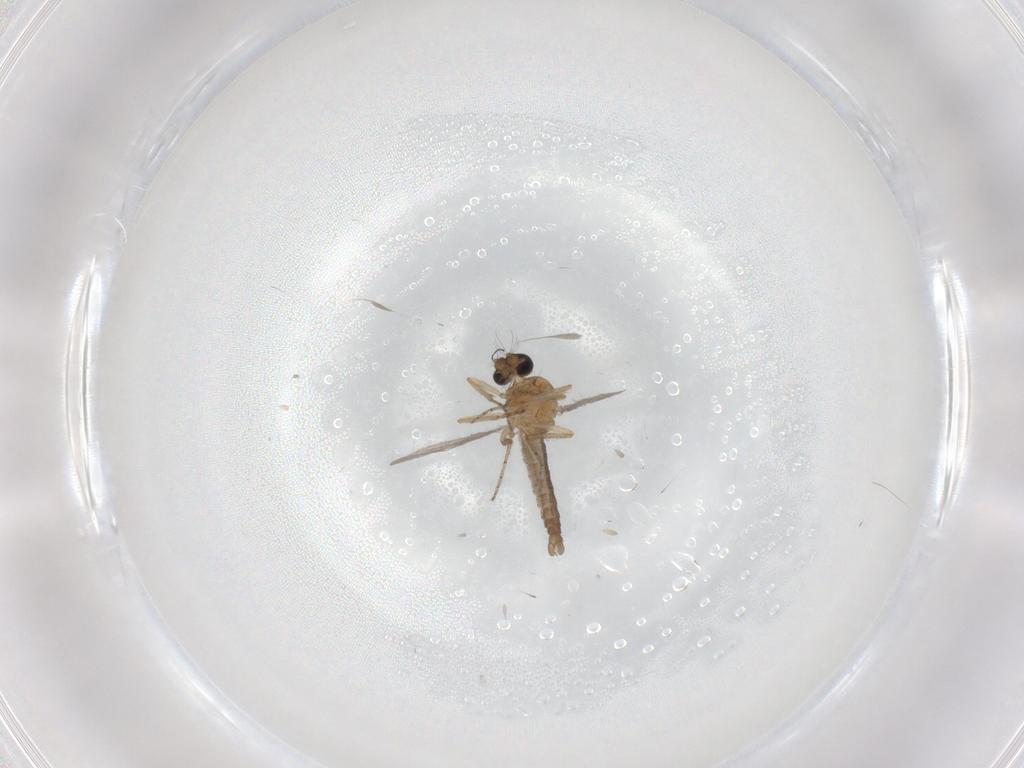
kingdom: Animalia
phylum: Arthropoda
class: Insecta
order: Diptera
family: Ceratopogonidae
